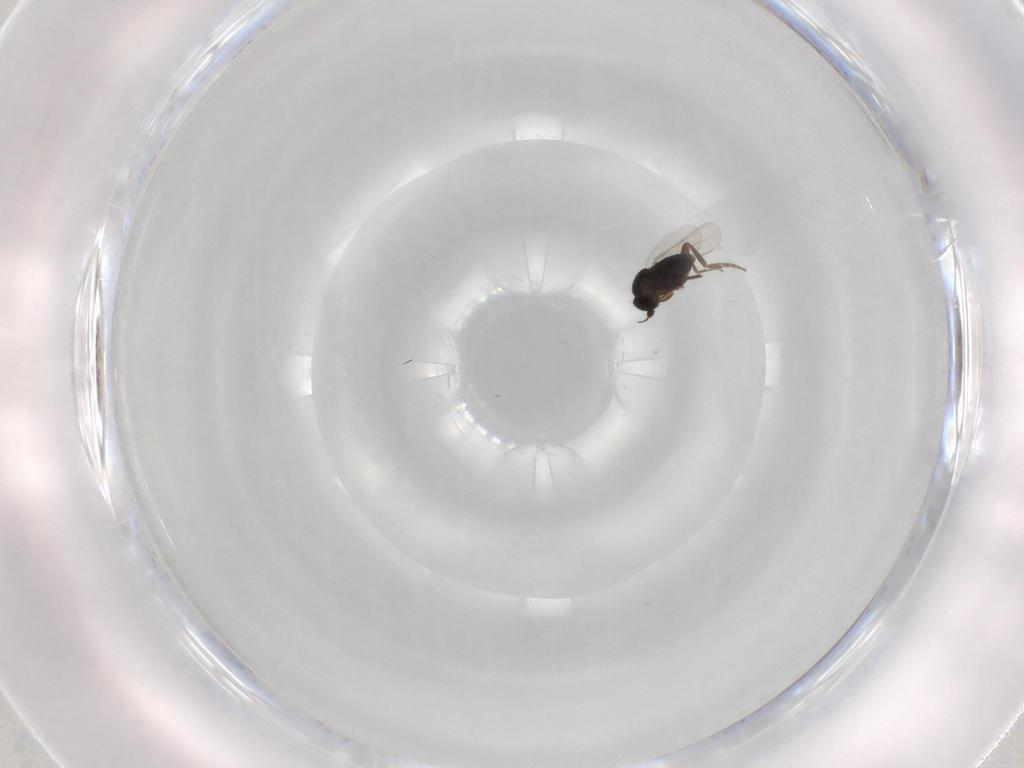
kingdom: Animalia
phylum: Arthropoda
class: Insecta
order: Diptera
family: Phoridae
